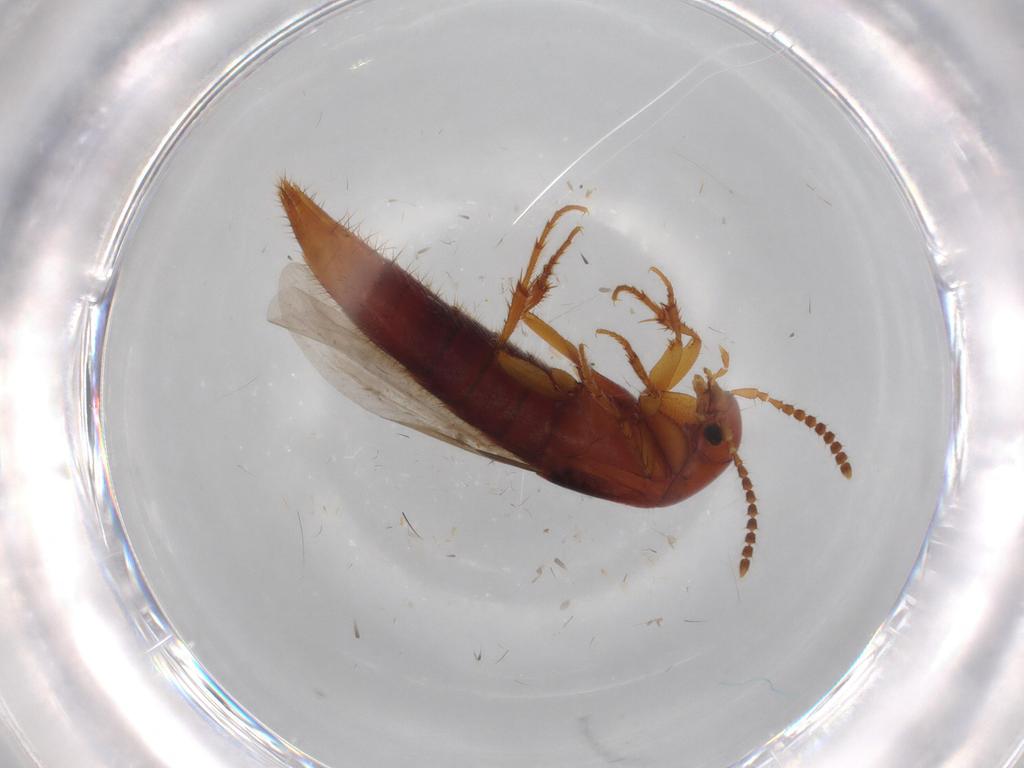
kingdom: Animalia
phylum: Arthropoda
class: Insecta
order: Coleoptera
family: Staphylinidae
